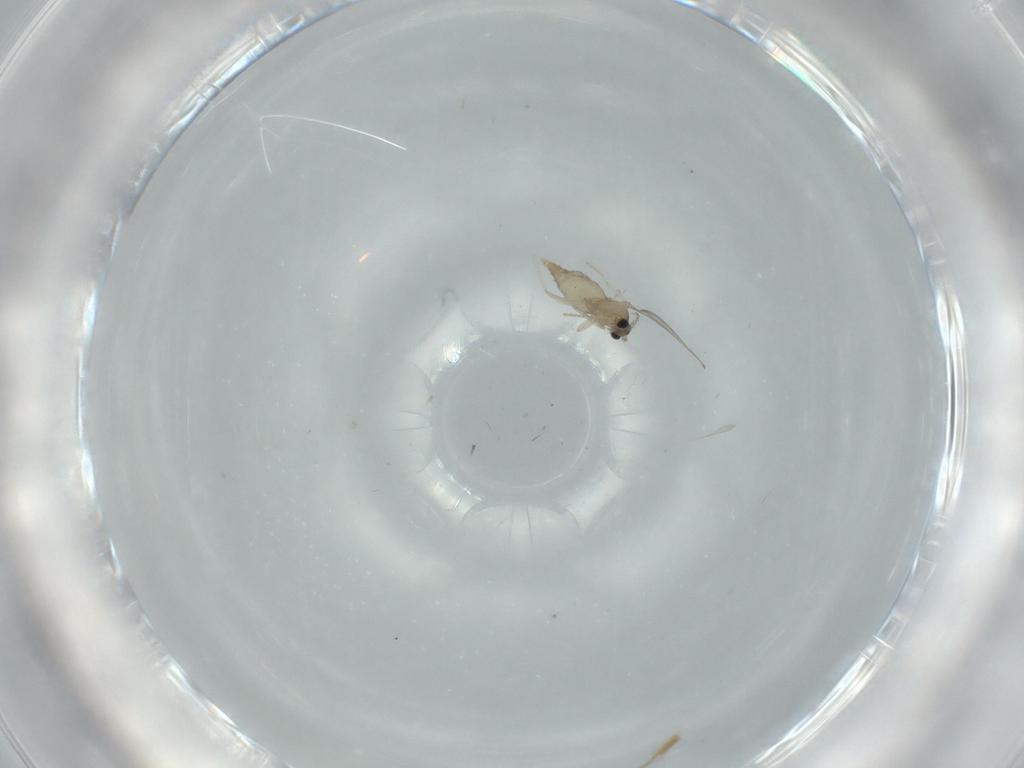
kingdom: Animalia
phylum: Arthropoda
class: Insecta
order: Diptera
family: Cecidomyiidae
